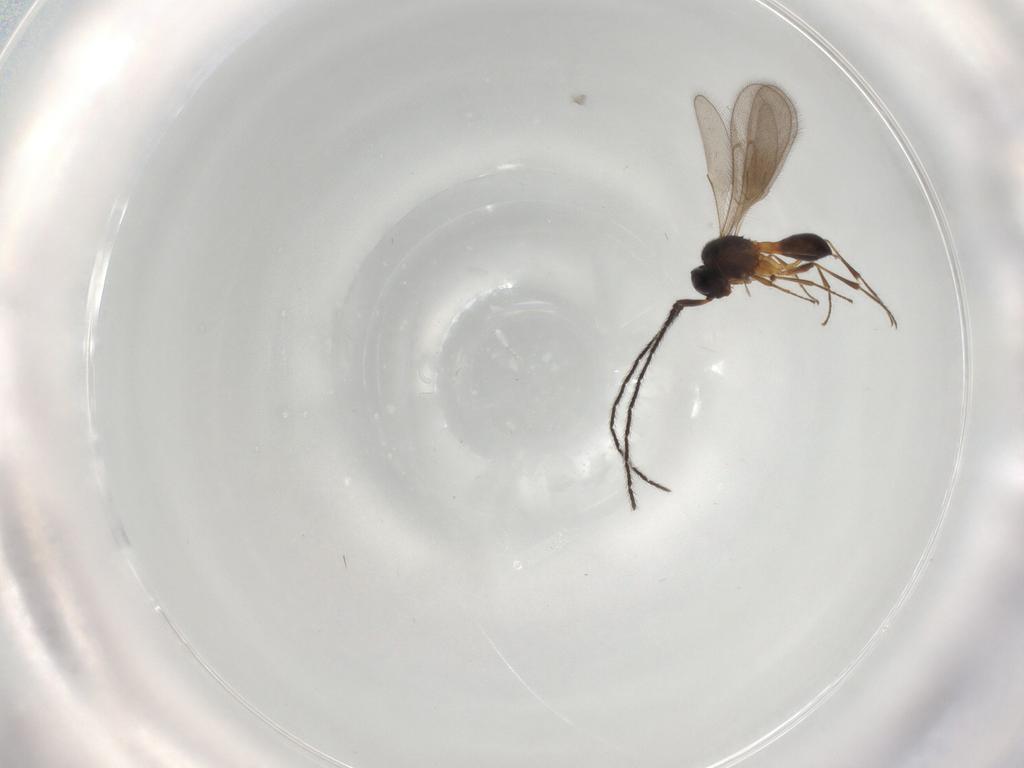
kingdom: Animalia
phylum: Arthropoda
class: Insecta
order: Hymenoptera
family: Scelionidae
